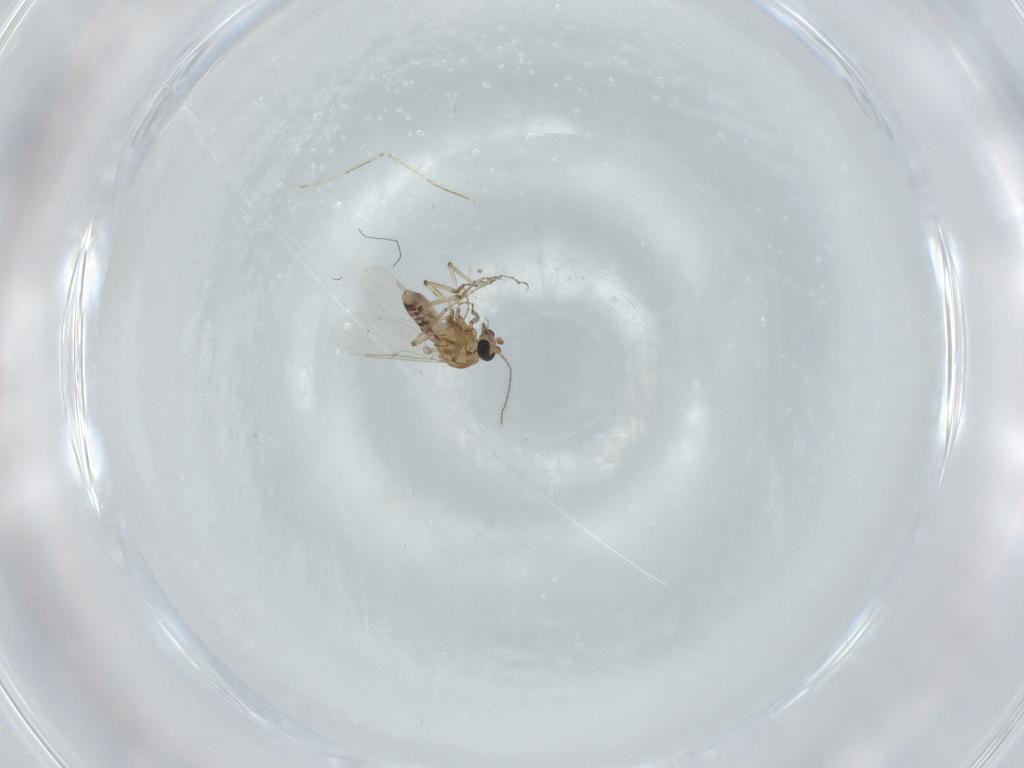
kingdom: Animalia
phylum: Arthropoda
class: Insecta
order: Diptera
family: Ceratopogonidae
